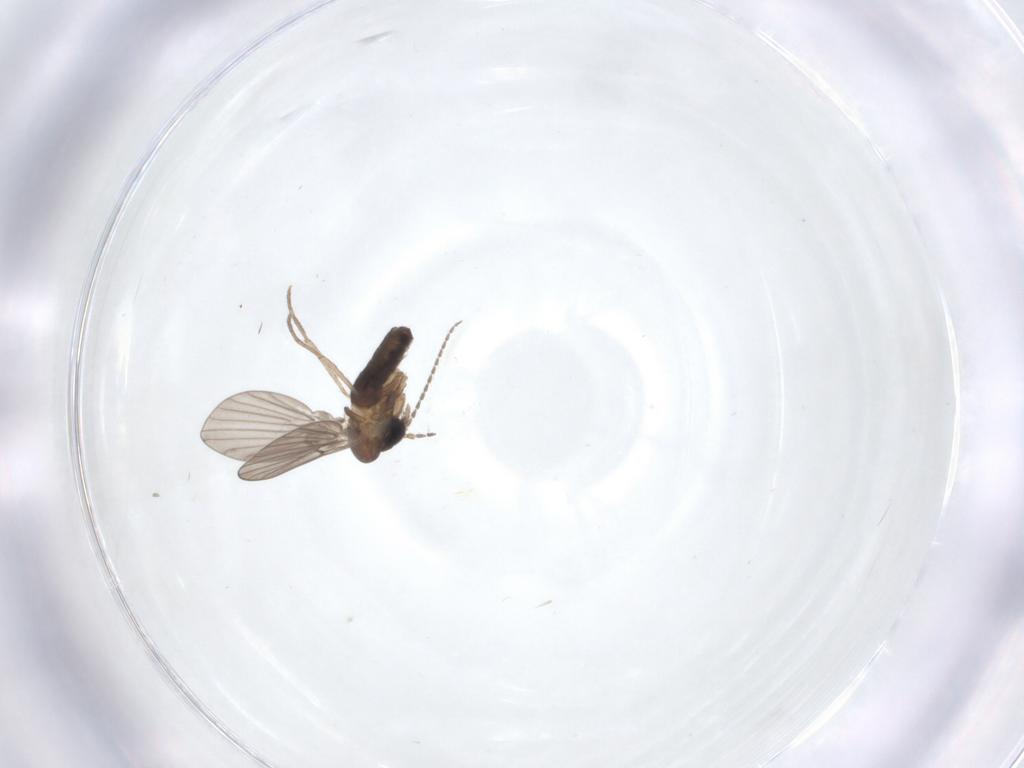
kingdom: Animalia
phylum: Arthropoda
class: Insecta
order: Diptera
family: Psychodidae
